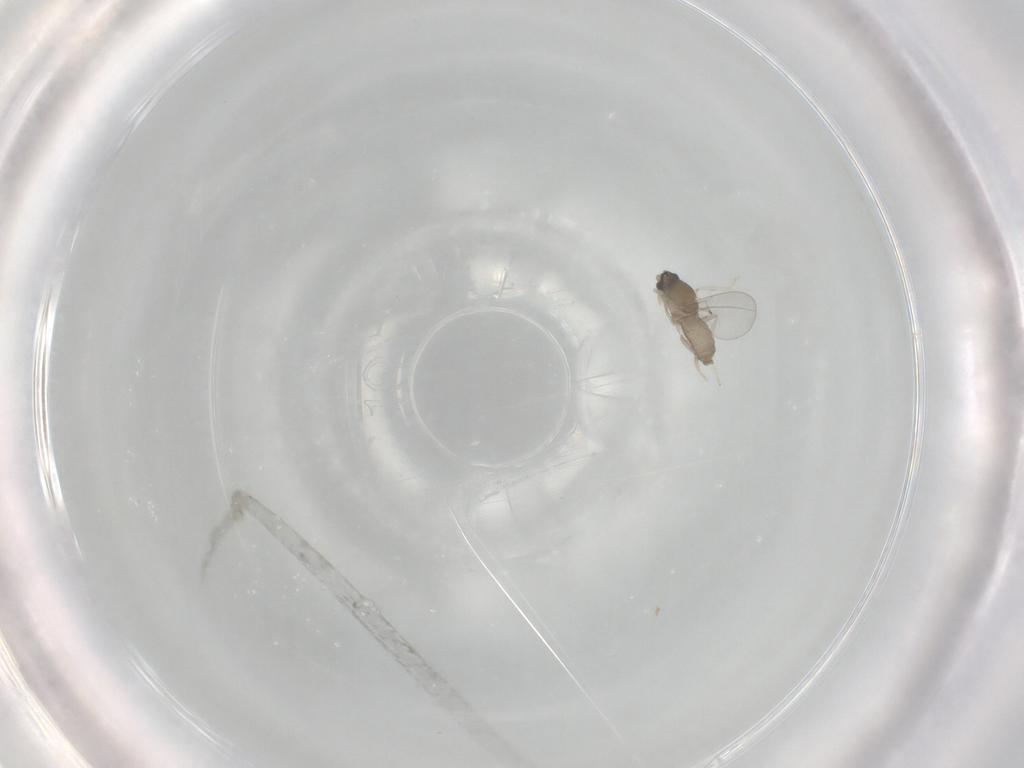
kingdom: Animalia
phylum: Arthropoda
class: Insecta
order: Diptera
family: Cecidomyiidae
